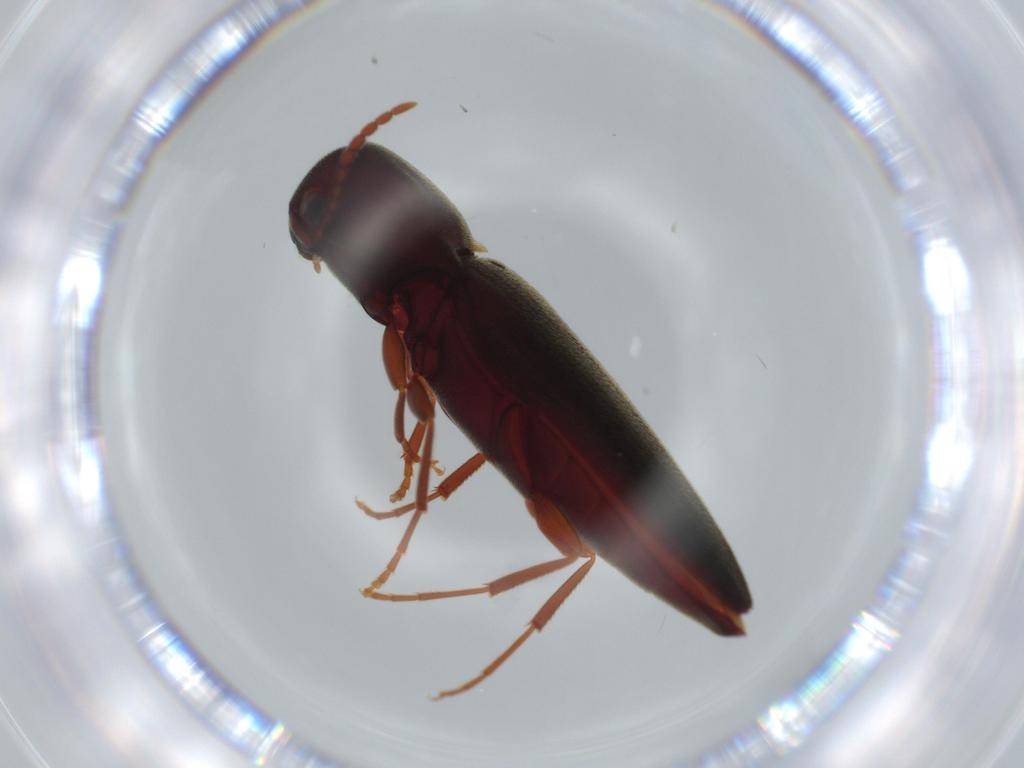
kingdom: Animalia
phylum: Arthropoda
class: Insecta
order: Coleoptera
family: Eucnemidae
